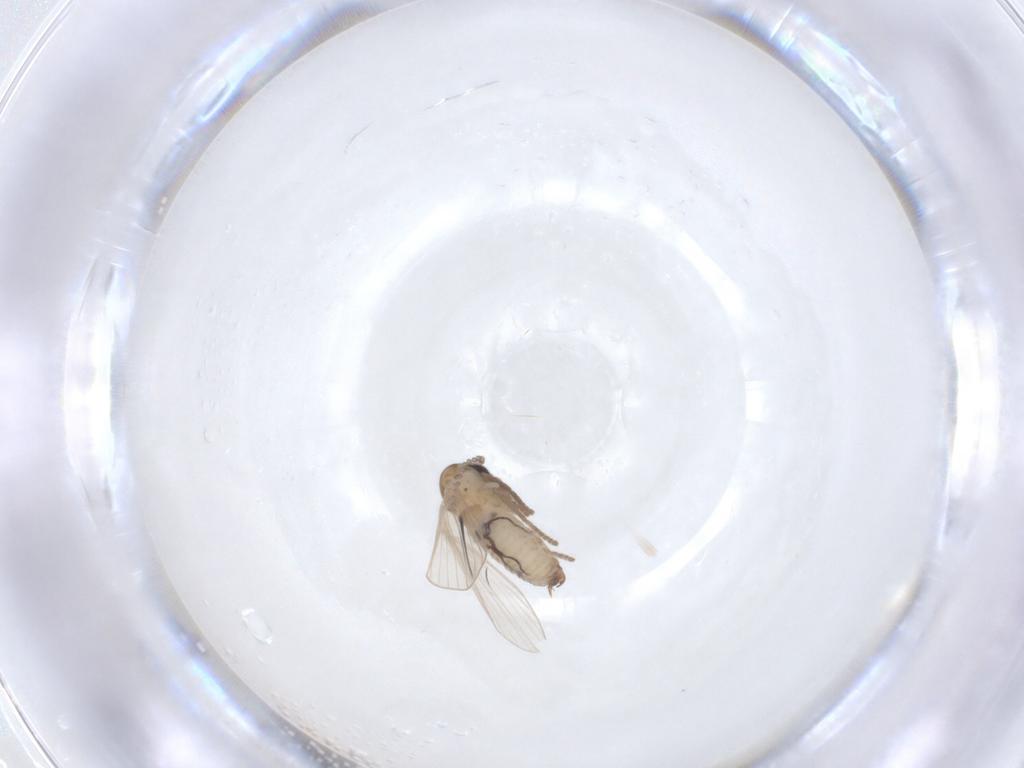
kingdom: Animalia
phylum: Arthropoda
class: Insecta
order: Diptera
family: Psychodidae
